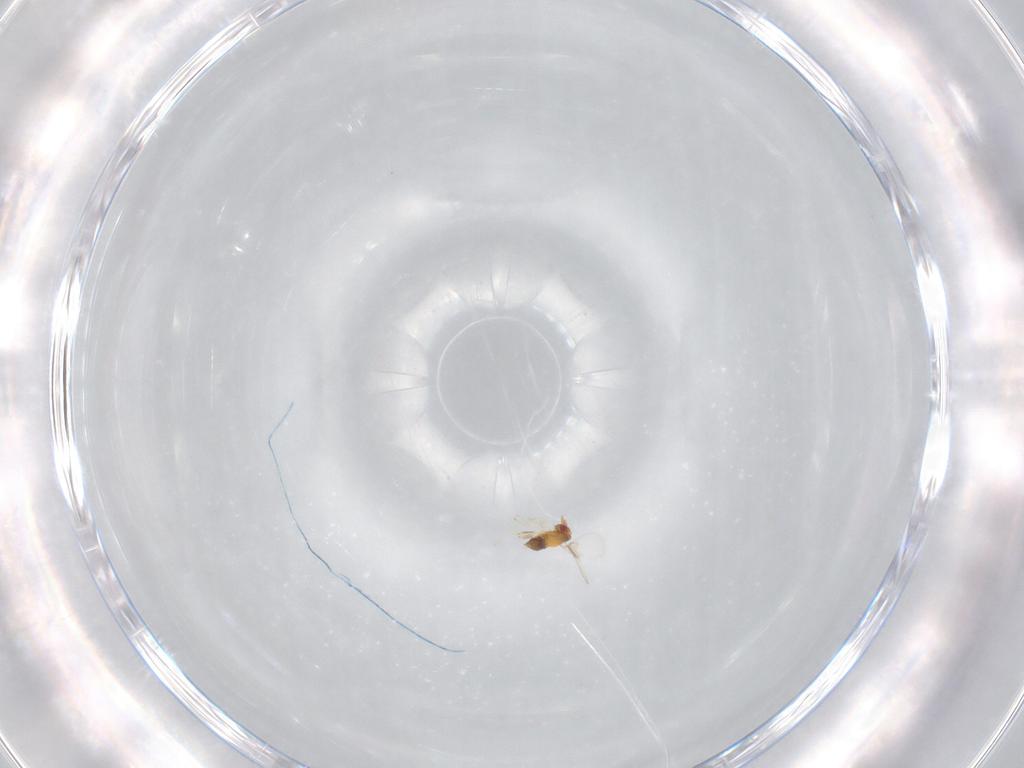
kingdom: Animalia
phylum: Arthropoda
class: Insecta
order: Hymenoptera
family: Trichogrammatidae
